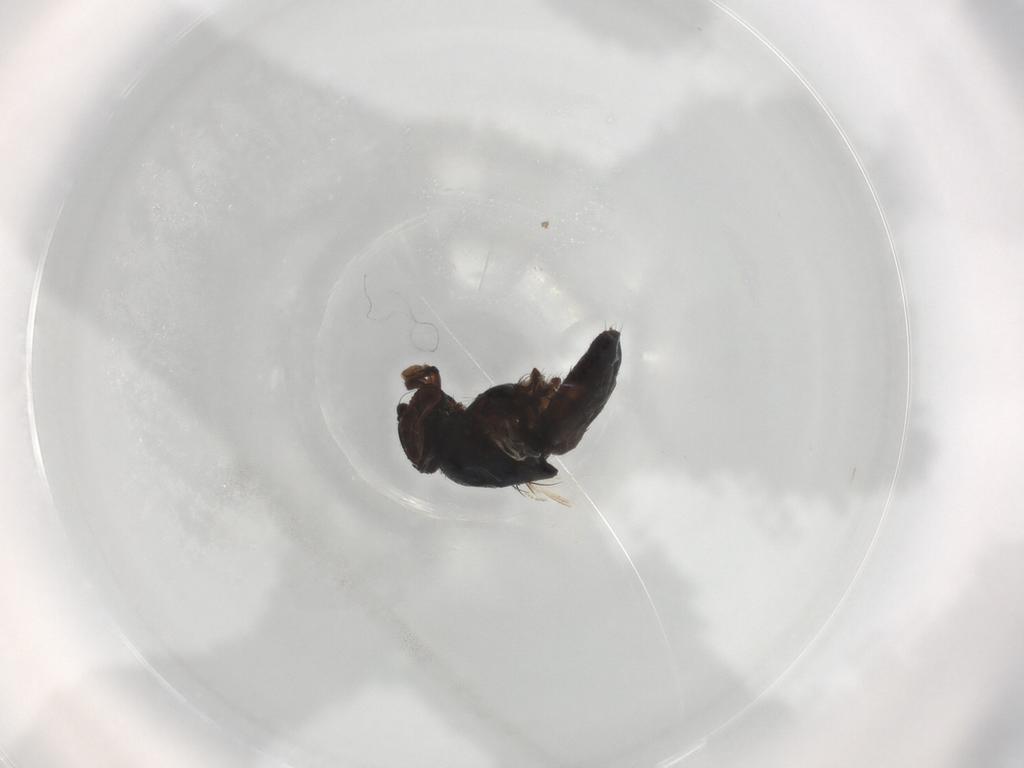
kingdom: Animalia
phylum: Arthropoda
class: Insecta
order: Diptera
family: Milichiidae
